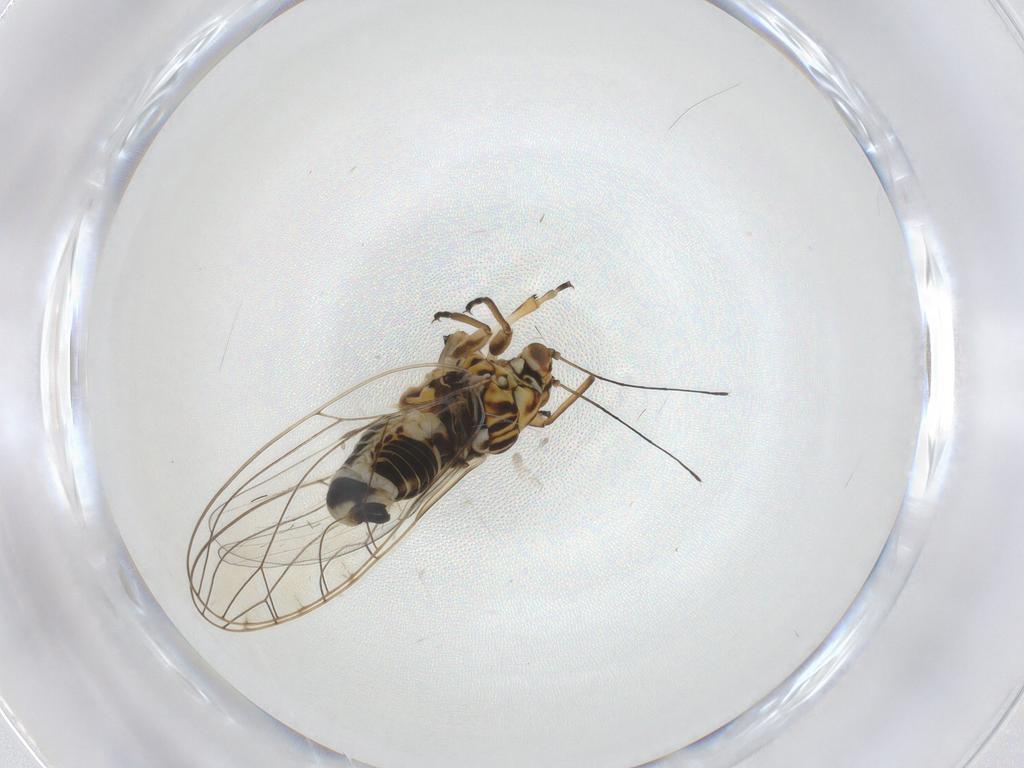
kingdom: Animalia
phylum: Arthropoda
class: Insecta
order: Hemiptera
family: Triozidae
